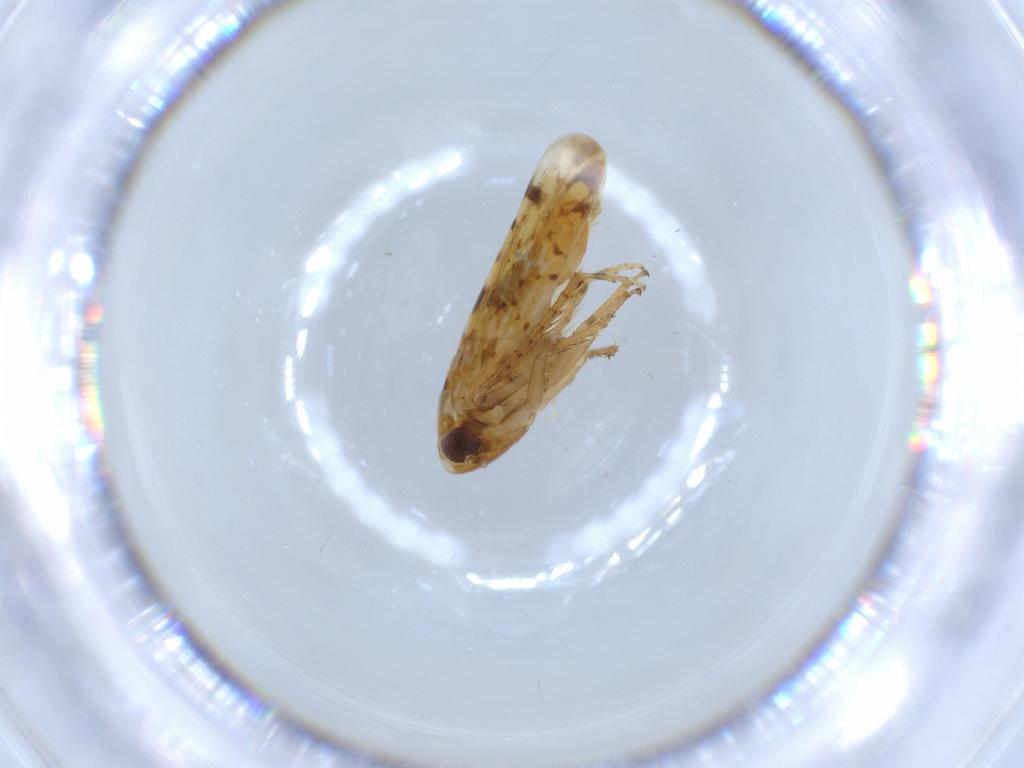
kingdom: Animalia
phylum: Arthropoda
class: Insecta
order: Hemiptera
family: Cicadellidae
